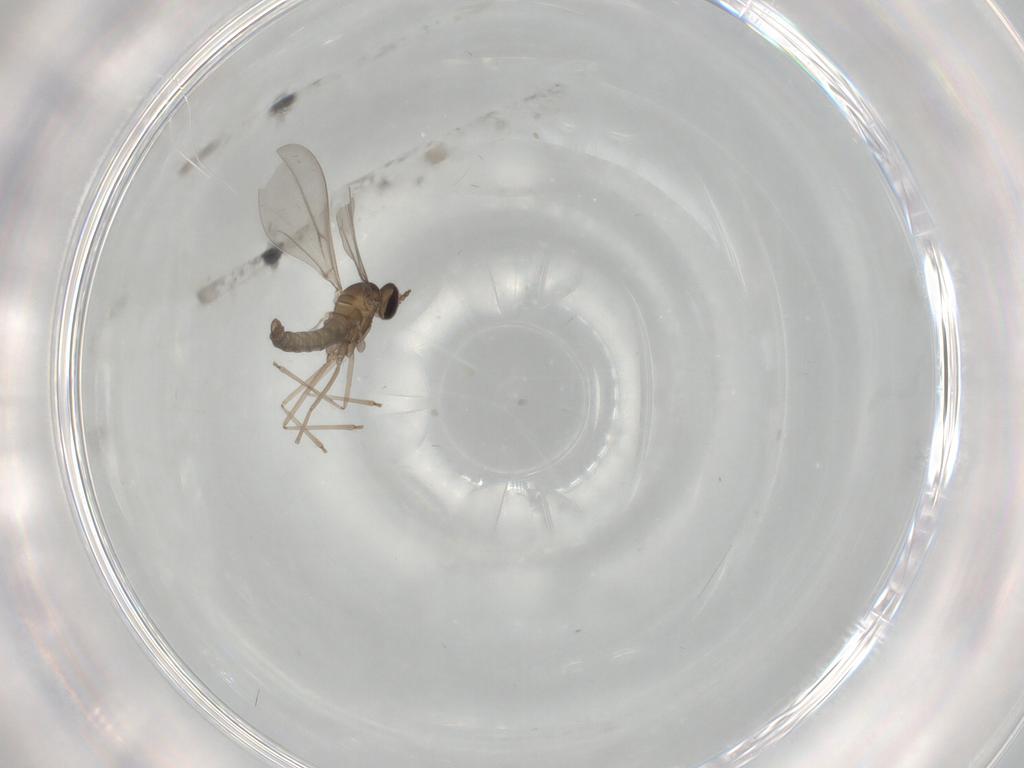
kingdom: Animalia
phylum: Arthropoda
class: Insecta
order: Diptera
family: Cecidomyiidae
